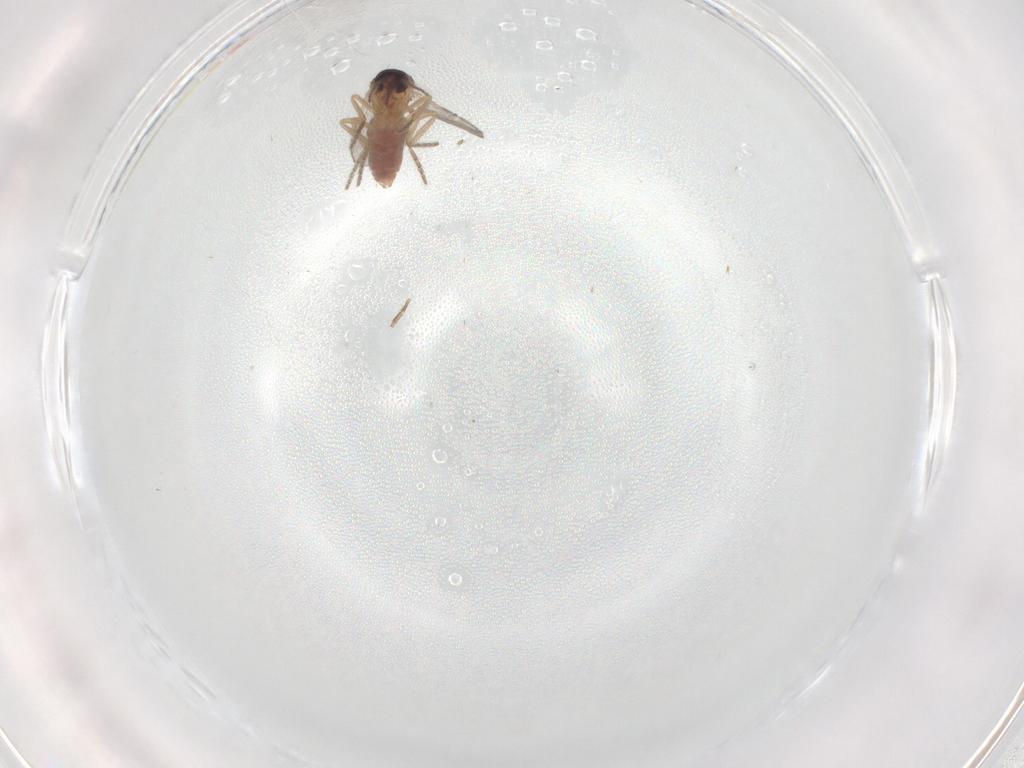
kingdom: Animalia
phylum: Arthropoda
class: Insecta
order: Diptera
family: Ceratopogonidae
